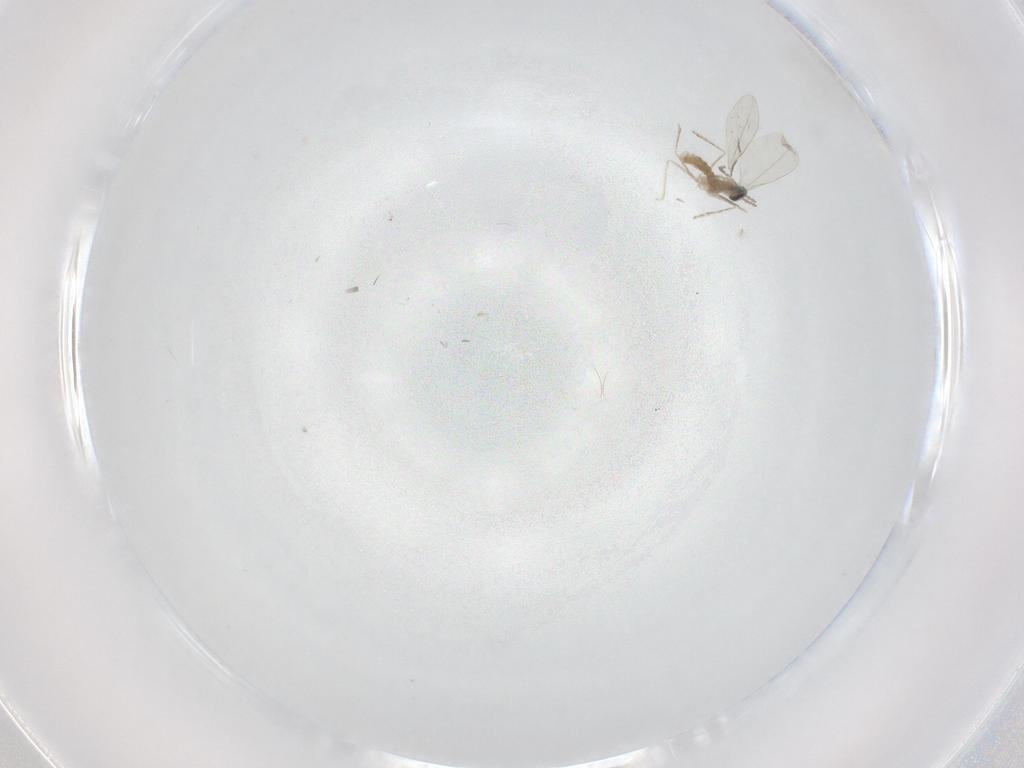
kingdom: Animalia
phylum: Arthropoda
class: Insecta
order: Diptera
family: Cecidomyiidae
